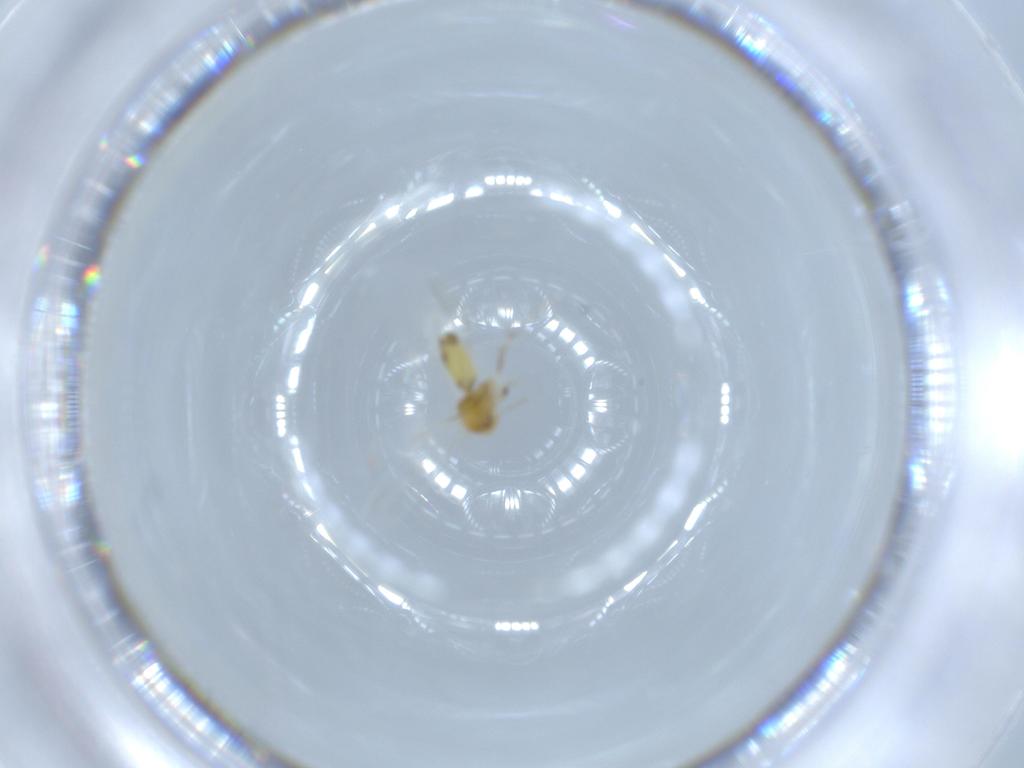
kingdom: Animalia
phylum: Arthropoda
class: Insecta
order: Hemiptera
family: Aleyrodidae
